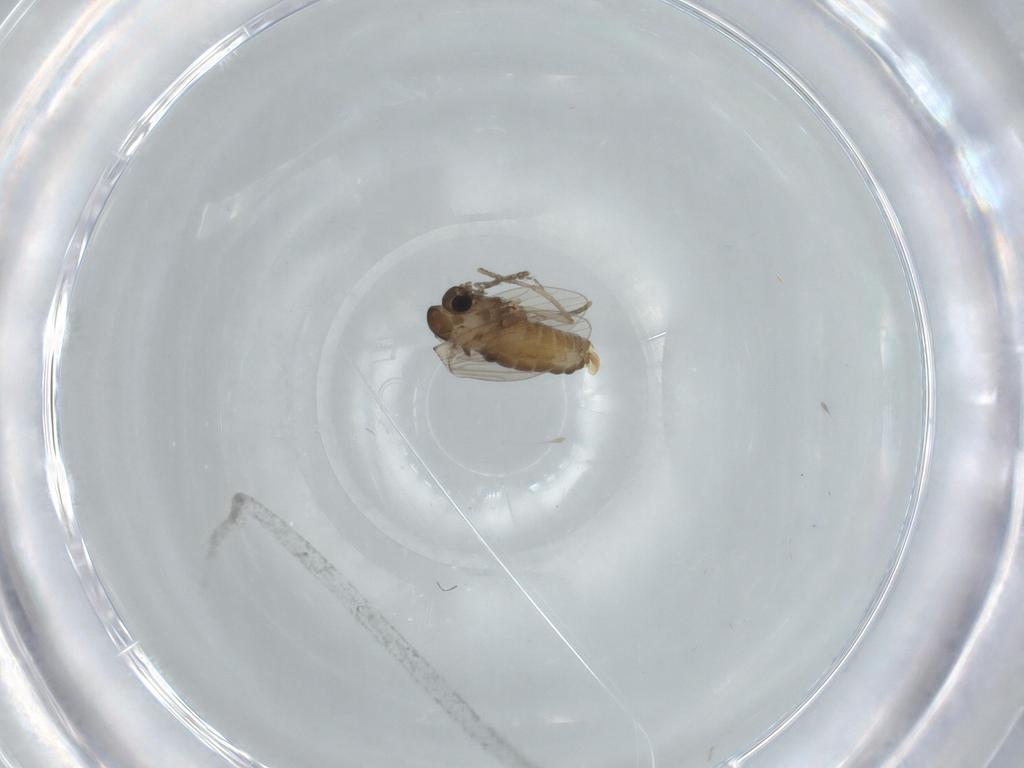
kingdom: Animalia
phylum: Arthropoda
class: Insecta
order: Diptera
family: Psychodidae
